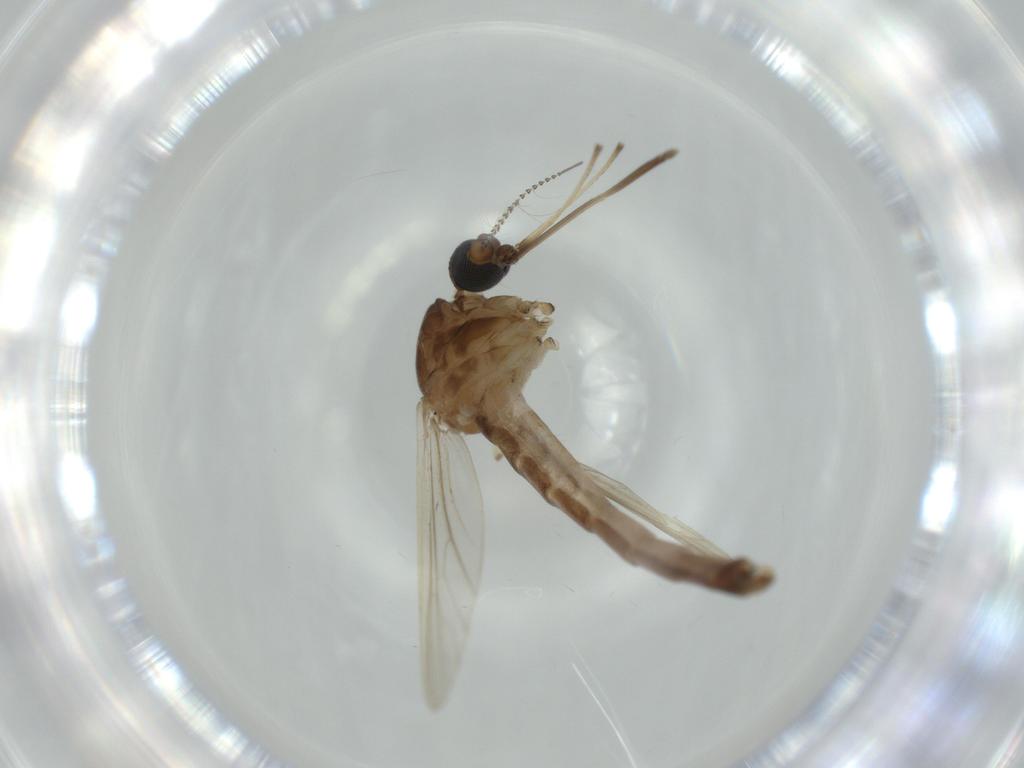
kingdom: Animalia
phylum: Arthropoda
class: Insecta
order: Diptera
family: Culicidae
